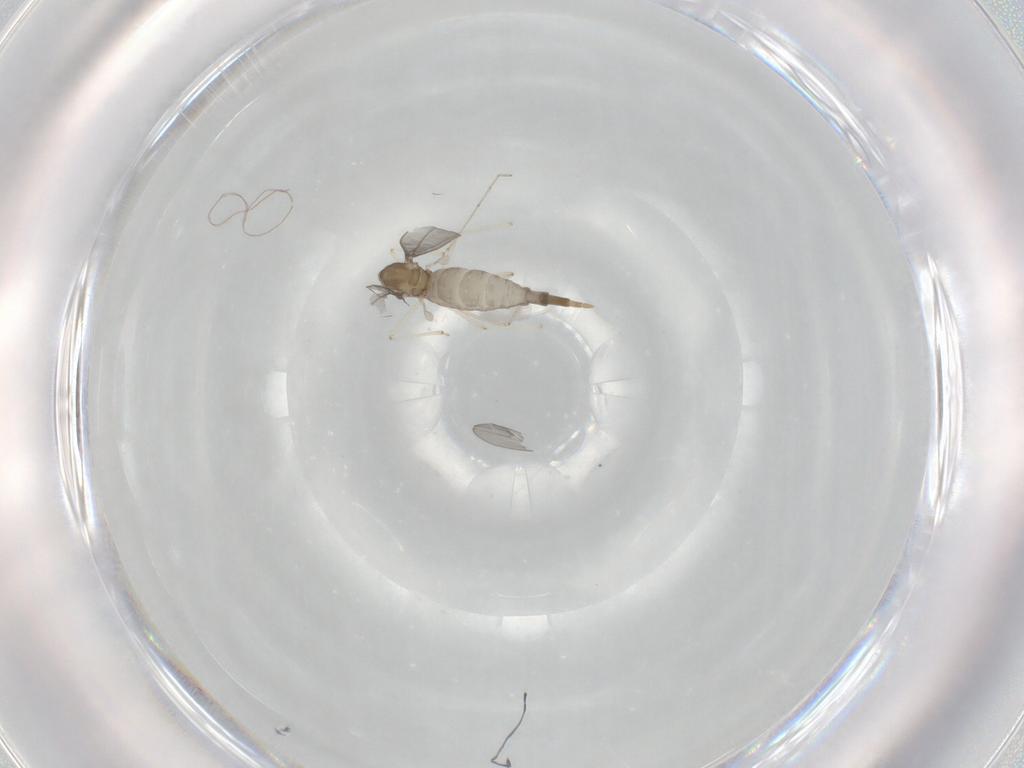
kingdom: Animalia
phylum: Arthropoda
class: Insecta
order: Diptera
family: Cecidomyiidae
